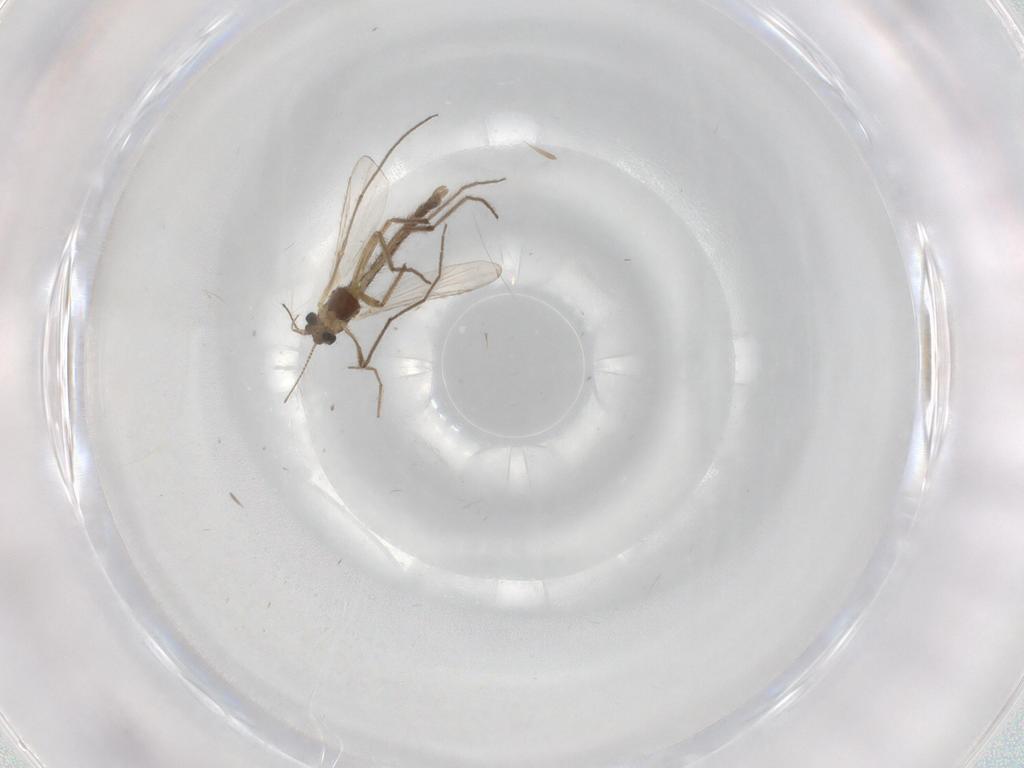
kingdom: Animalia
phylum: Arthropoda
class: Insecta
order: Diptera
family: Chironomidae
